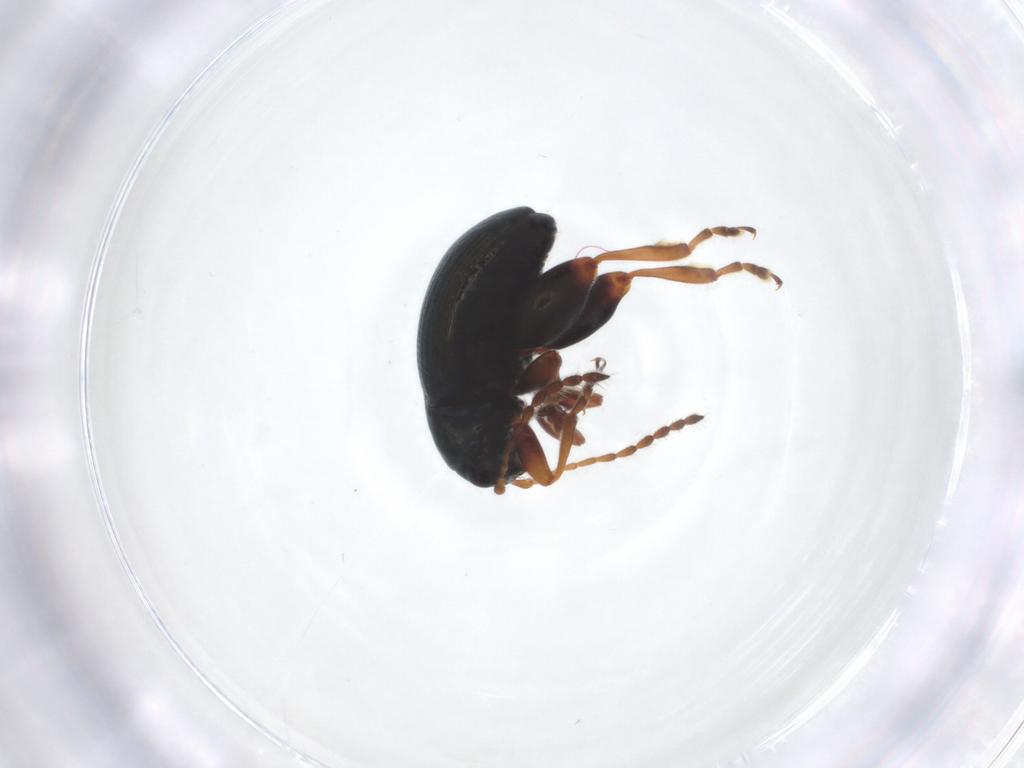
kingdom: Animalia
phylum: Arthropoda
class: Insecta
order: Coleoptera
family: Chrysomelidae
